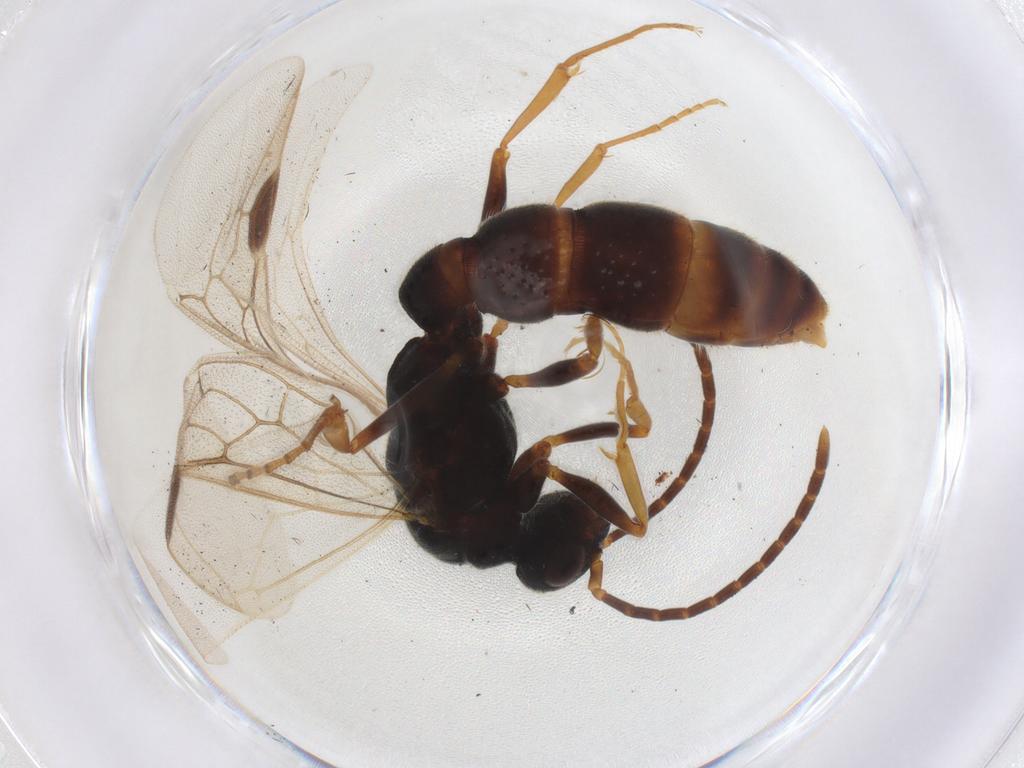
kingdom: Animalia
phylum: Arthropoda
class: Insecta
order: Hymenoptera
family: Formicidae
